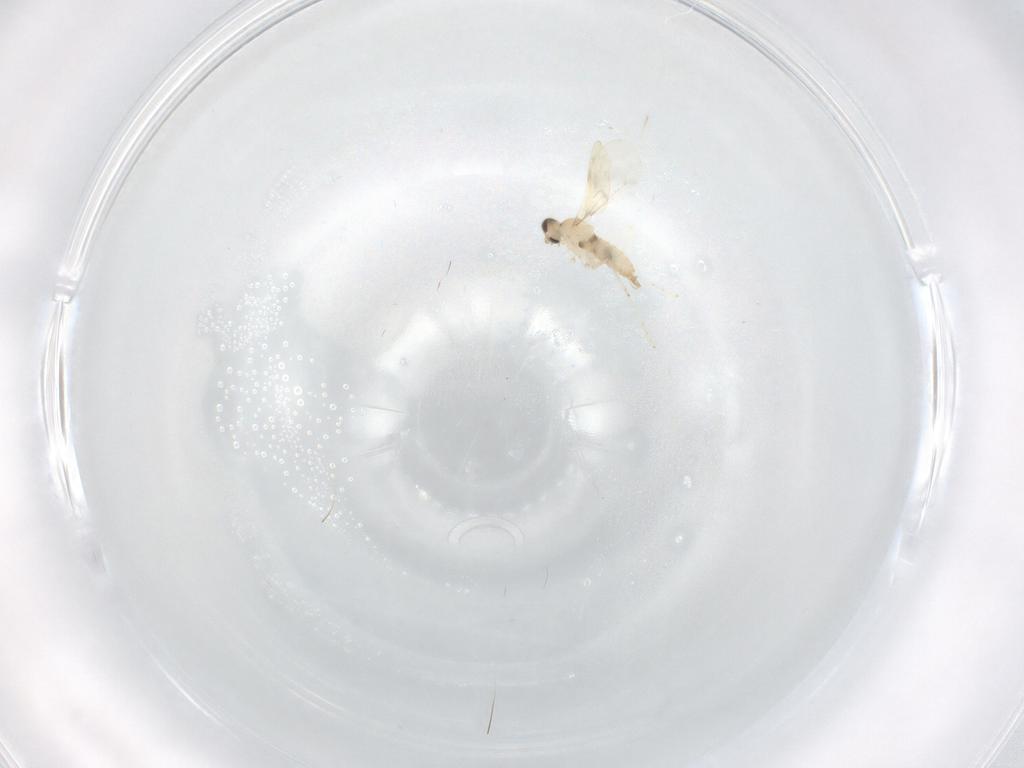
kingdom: Animalia
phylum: Arthropoda
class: Insecta
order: Diptera
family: Cecidomyiidae
